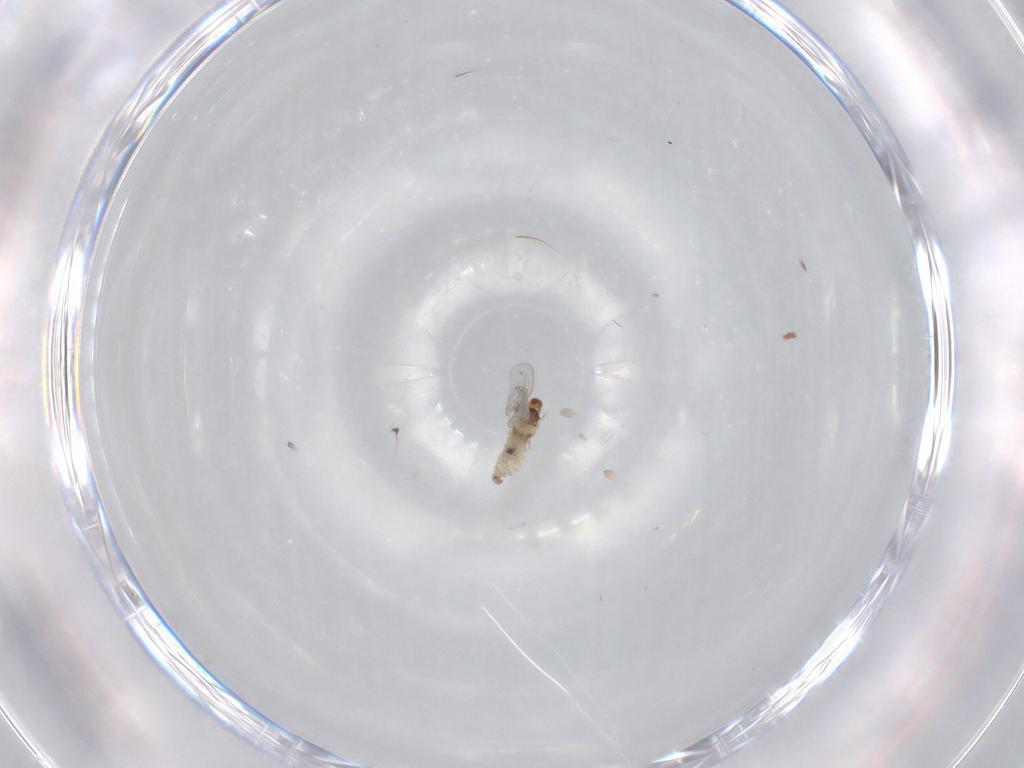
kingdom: Animalia
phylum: Arthropoda
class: Insecta
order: Diptera
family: Cecidomyiidae
